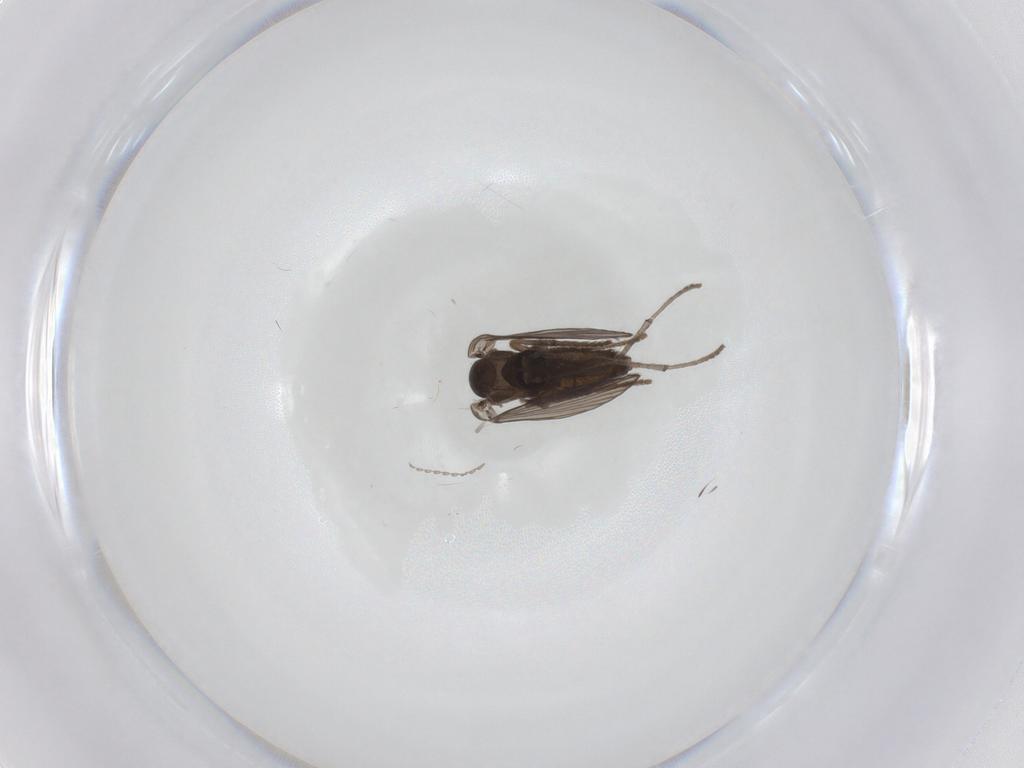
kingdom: Animalia
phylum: Arthropoda
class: Insecta
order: Diptera
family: Psychodidae
